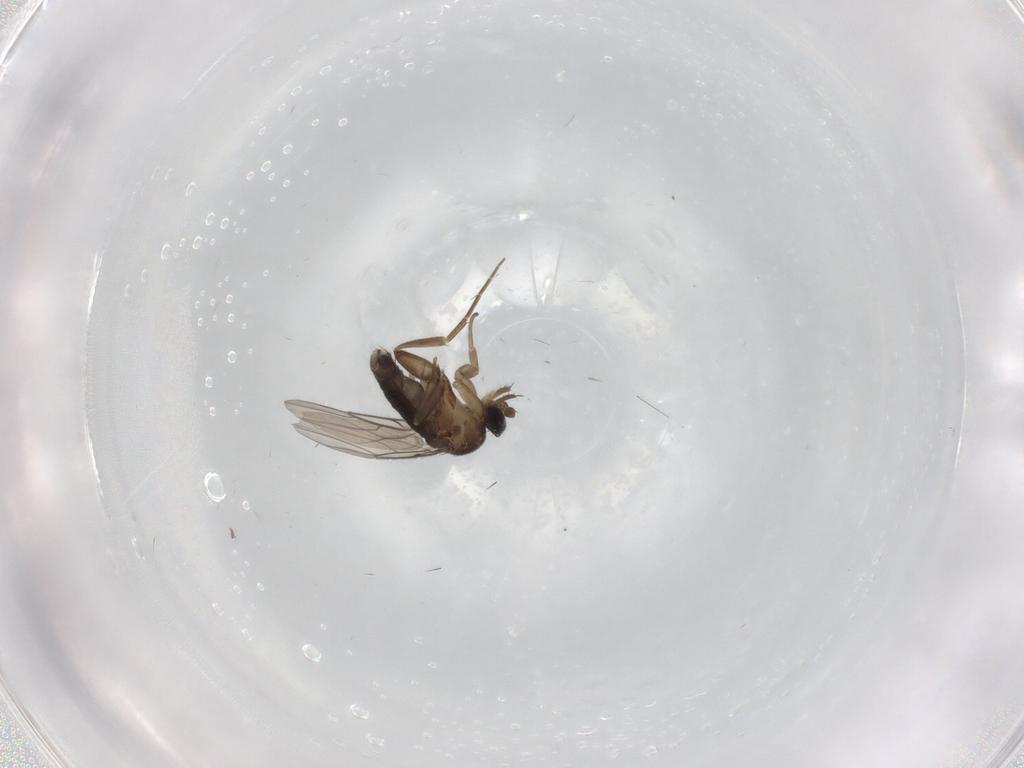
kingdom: Animalia
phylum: Arthropoda
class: Insecta
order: Diptera
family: Phoridae
